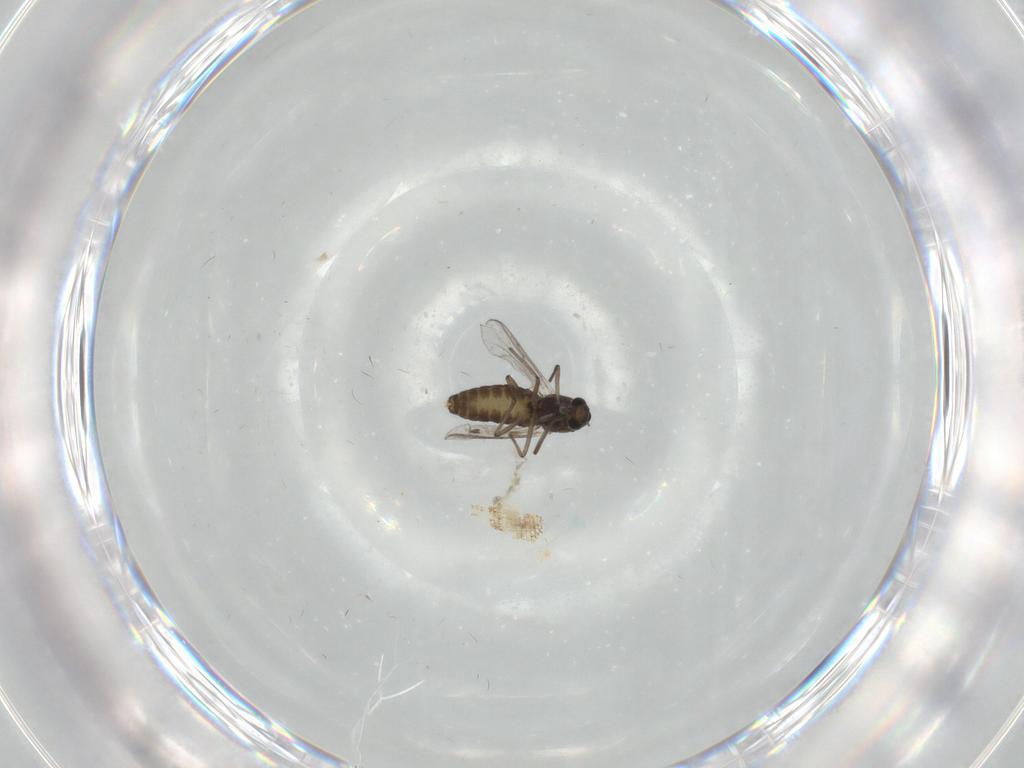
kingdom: Animalia
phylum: Arthropoda
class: Insecta
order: Diptera
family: Chironomidae
